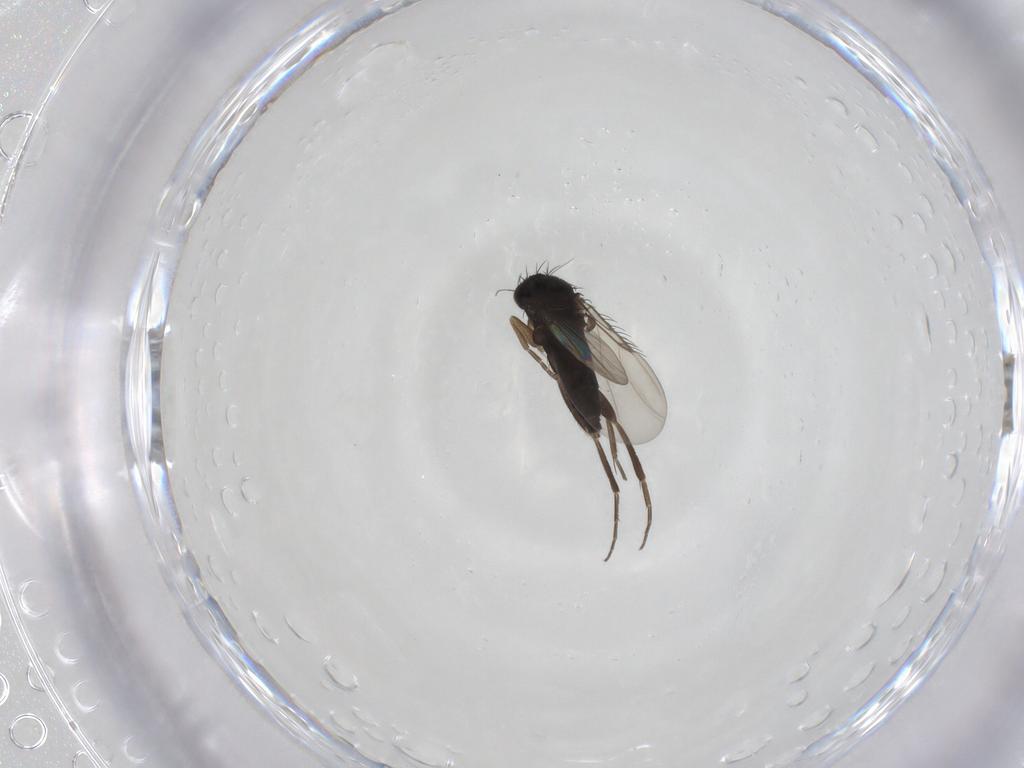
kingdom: Animalia
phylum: Arthropoda
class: Insecta
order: Diptera
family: Phoridae
